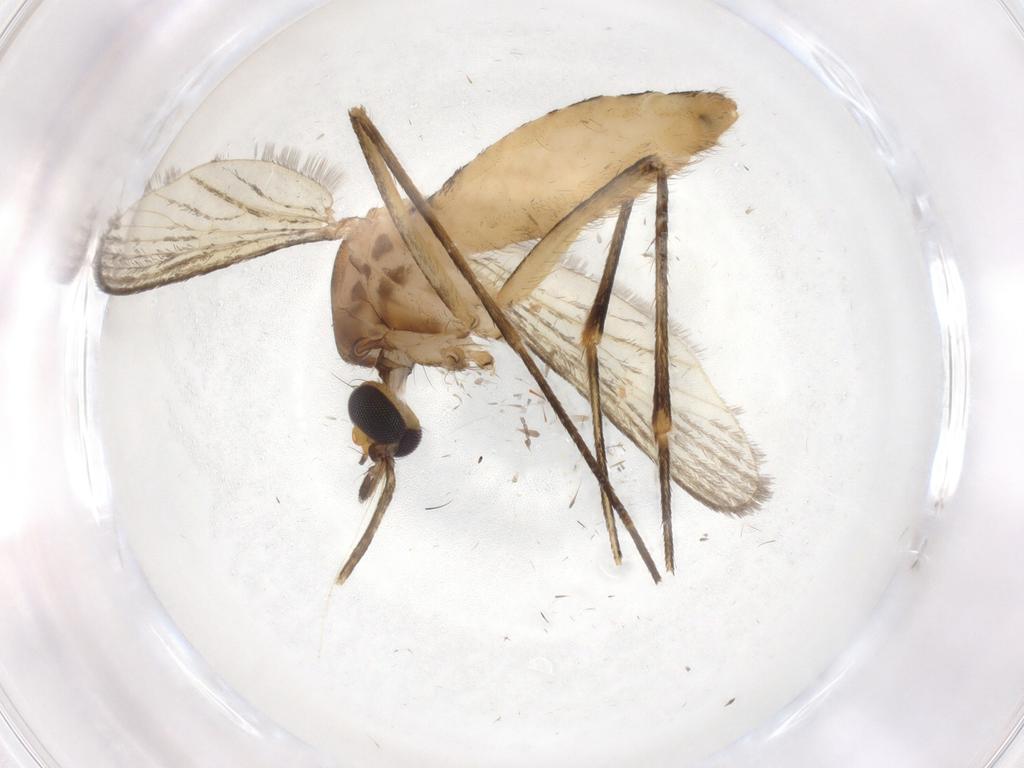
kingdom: Animalia
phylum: Arthropoda
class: Insecta
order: Diptera
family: Culicidae
